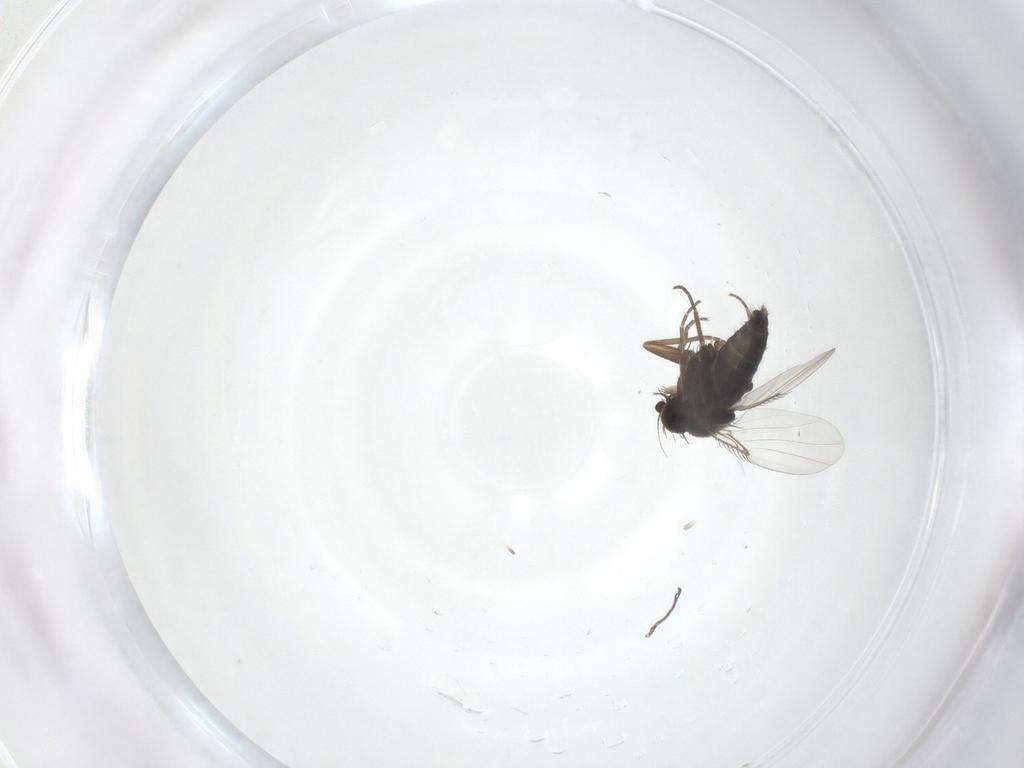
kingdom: Animalia
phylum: Arthropoda
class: Insecta
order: Diptera
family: Phoridae
